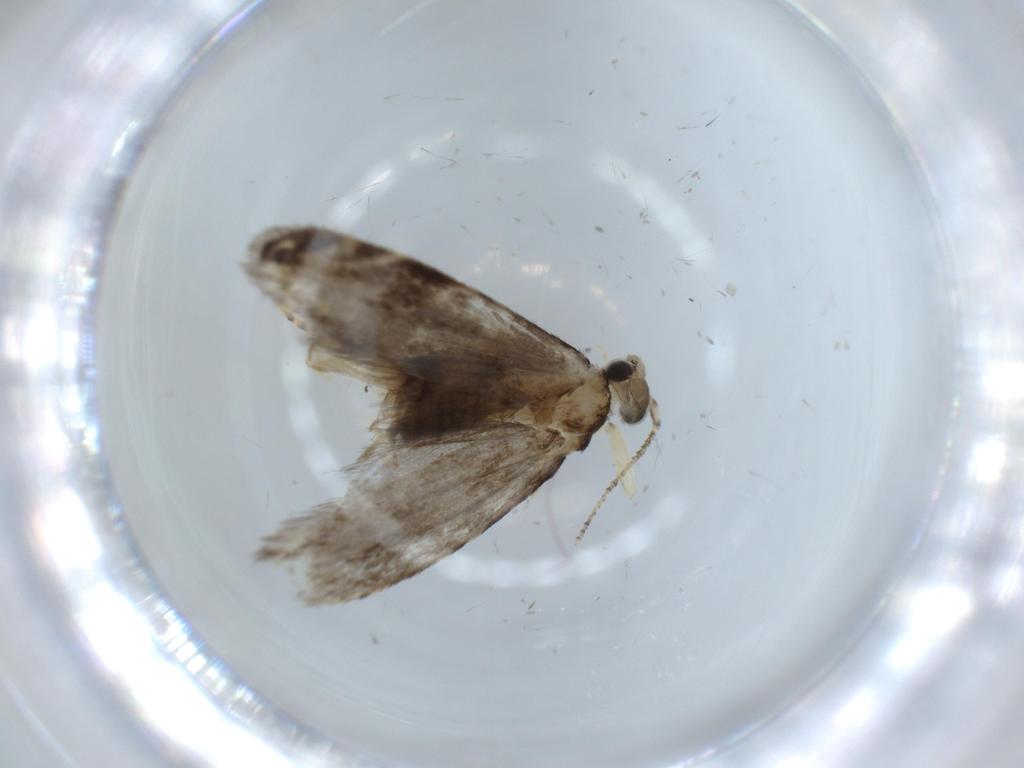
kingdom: Animalia
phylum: Arthropoda
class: Insecta
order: Lepidoptera
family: Tineidae
